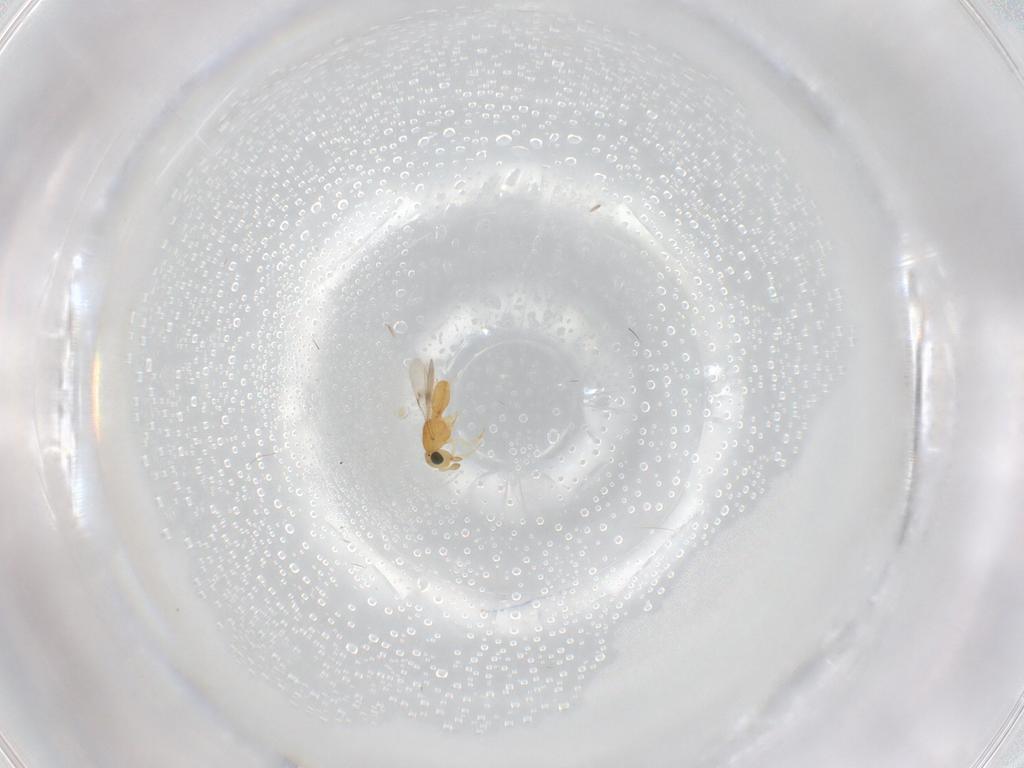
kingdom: Animalia
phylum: Arthropoda
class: Insecta
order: Hymenoptera
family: Scelionidae
